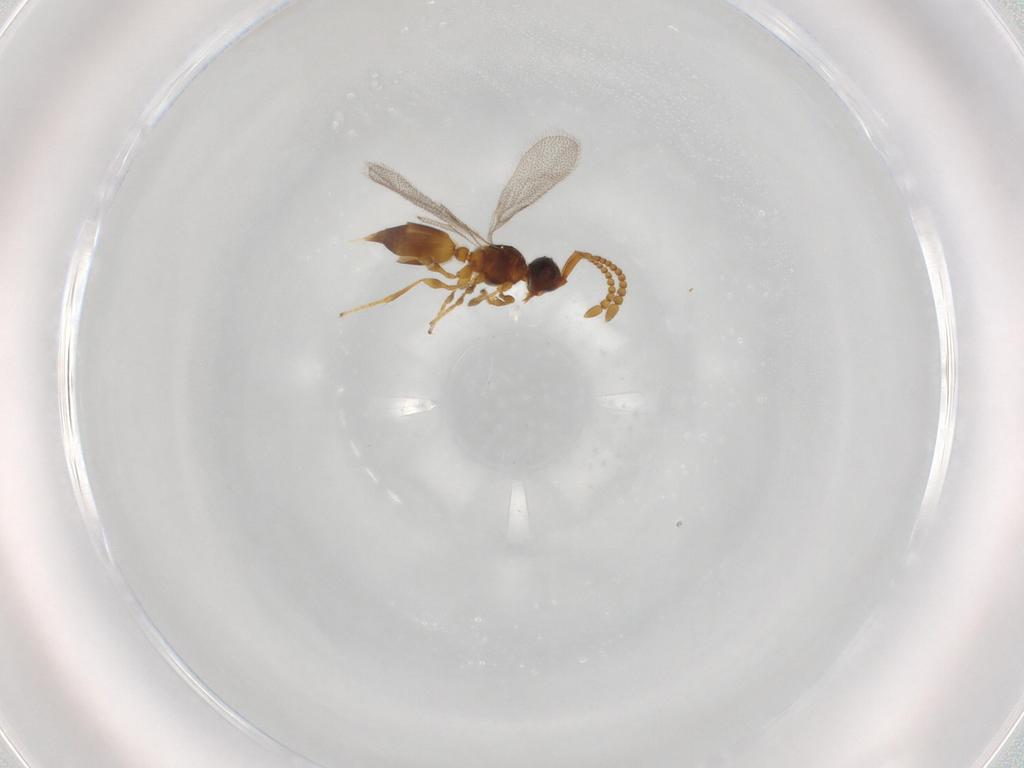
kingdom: Animalia
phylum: Arthropoda
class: Insecta
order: Hymenoptera
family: Diapriidae
